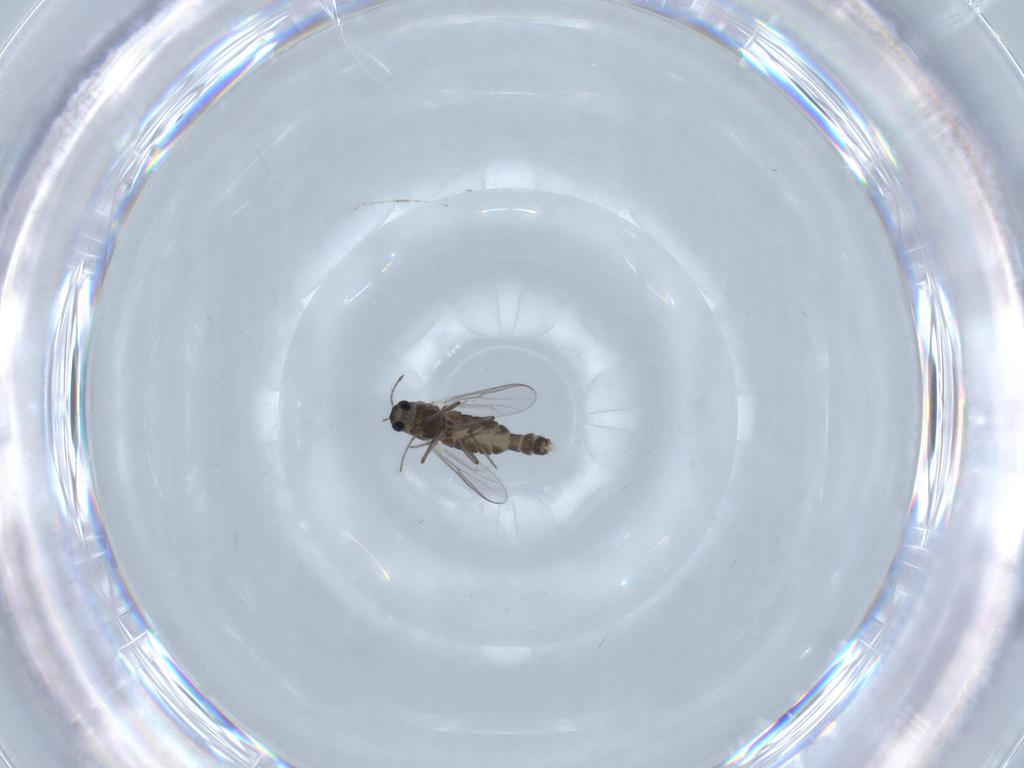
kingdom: Animalia
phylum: Arthropoda
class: Insecta
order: Diptera
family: Chironomidae
